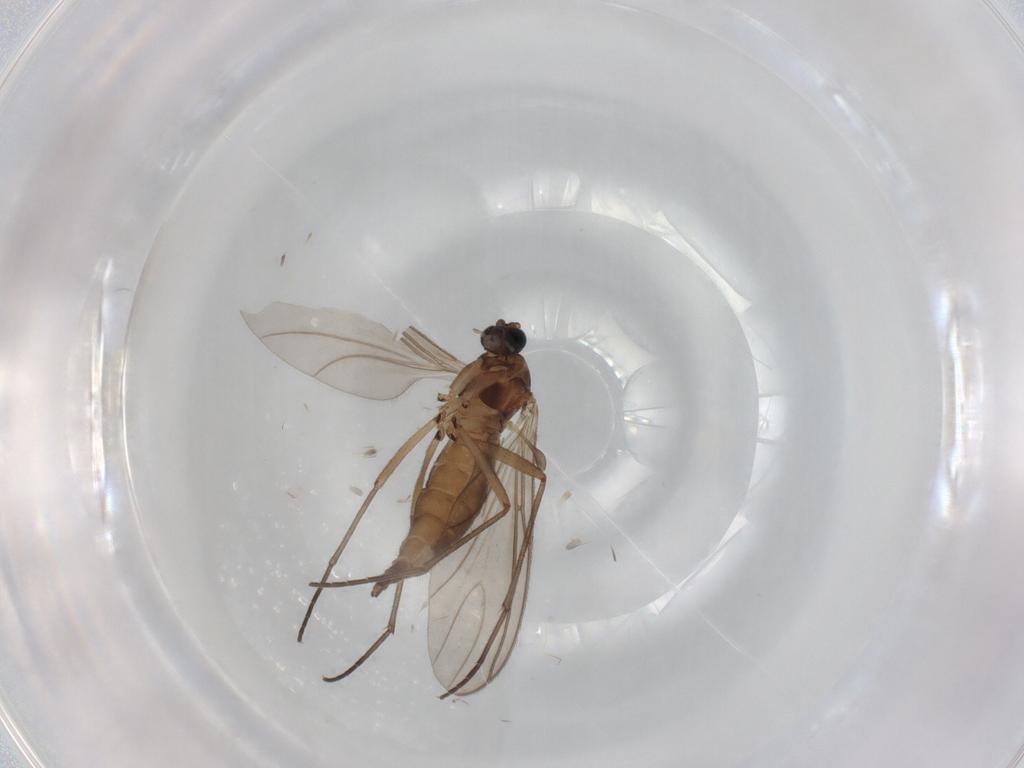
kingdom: Animalia
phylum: Arthropoda
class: Insecta
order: Diptera
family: Sciaridae
